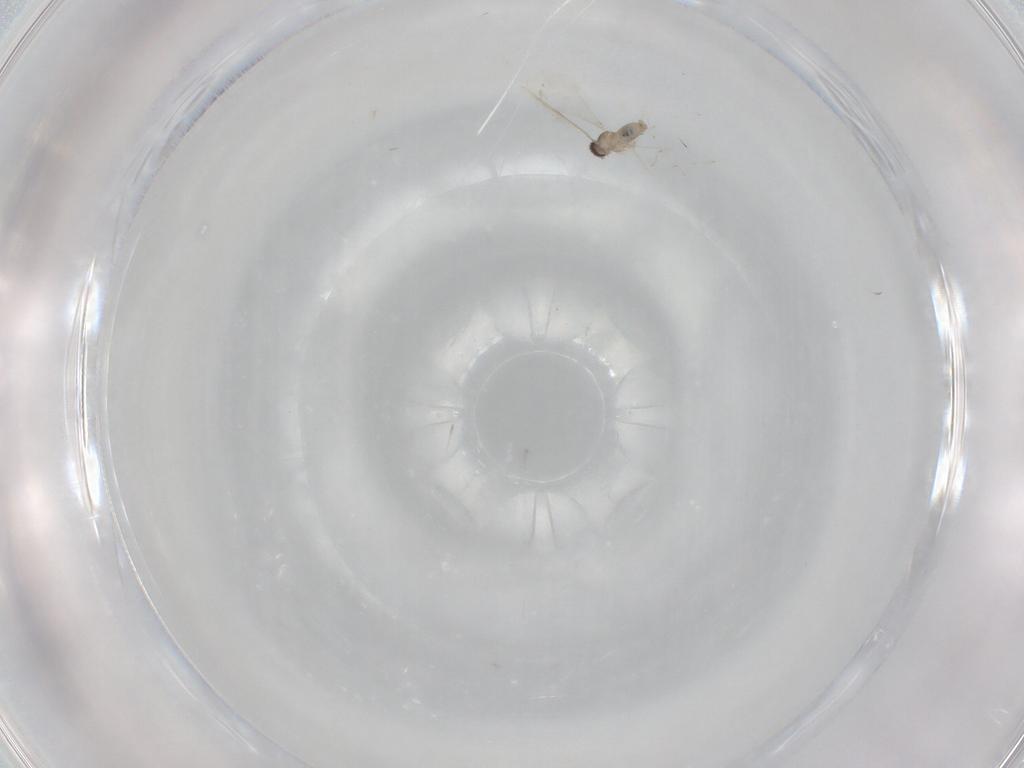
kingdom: Animalia
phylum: Arthropoda
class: Insecta
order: Diptera
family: Cecidomyiidae
